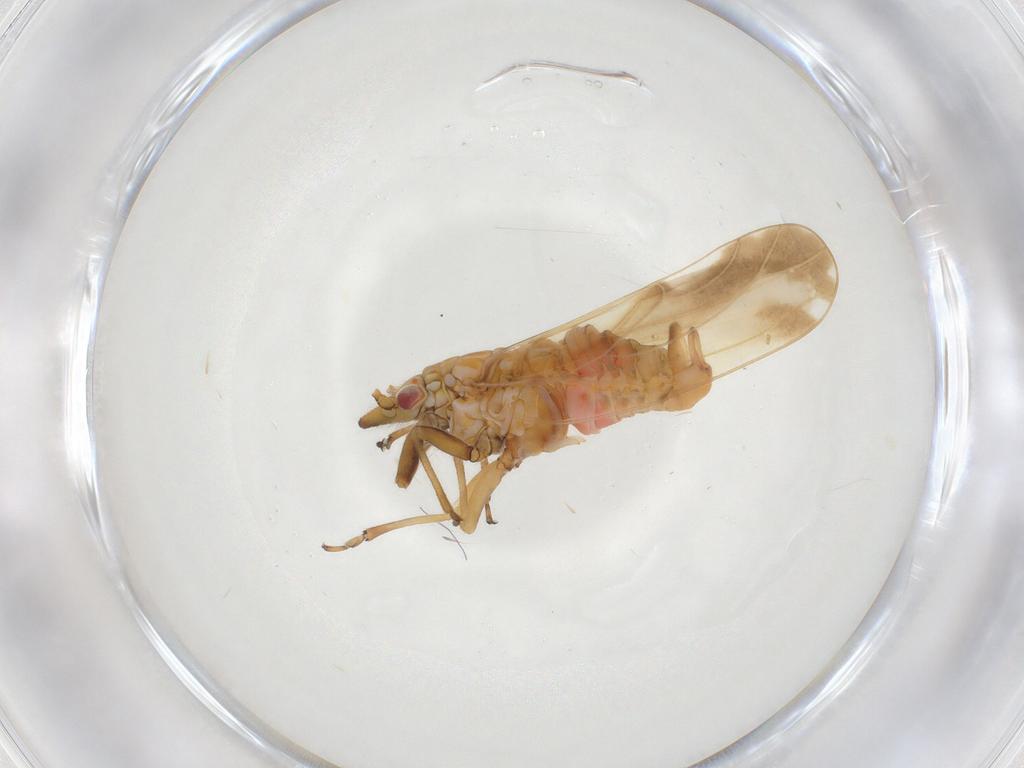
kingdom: Animalia
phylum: Arthropoda
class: Insecta
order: Hemiptera
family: Psyllidae
